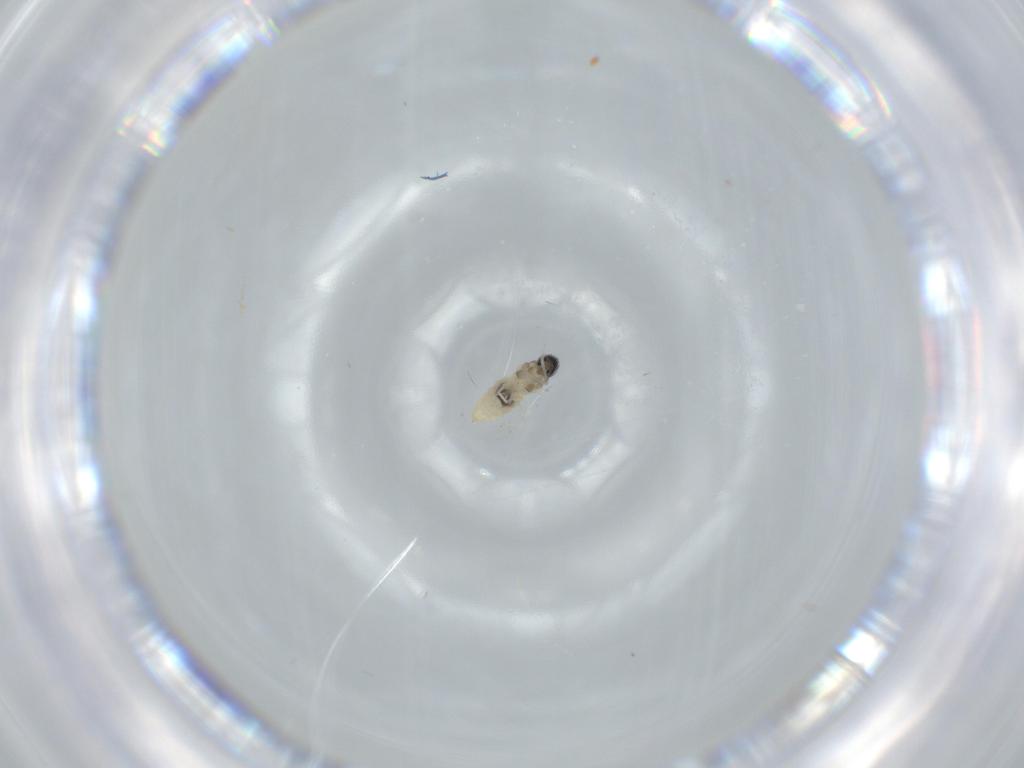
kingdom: Animalia
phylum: Arthropoda
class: Insecta
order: Diptera
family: Cecidomyiidae
